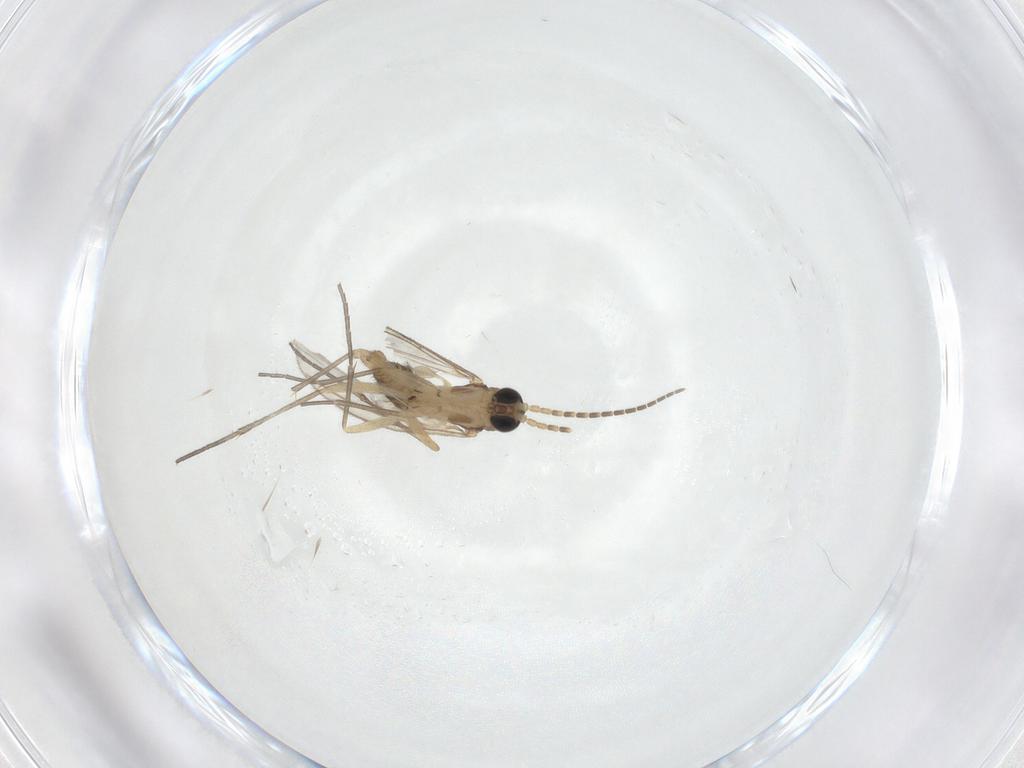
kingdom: Animalia
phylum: Arthropoda
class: Insecta
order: Diptera
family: Sciaridae
